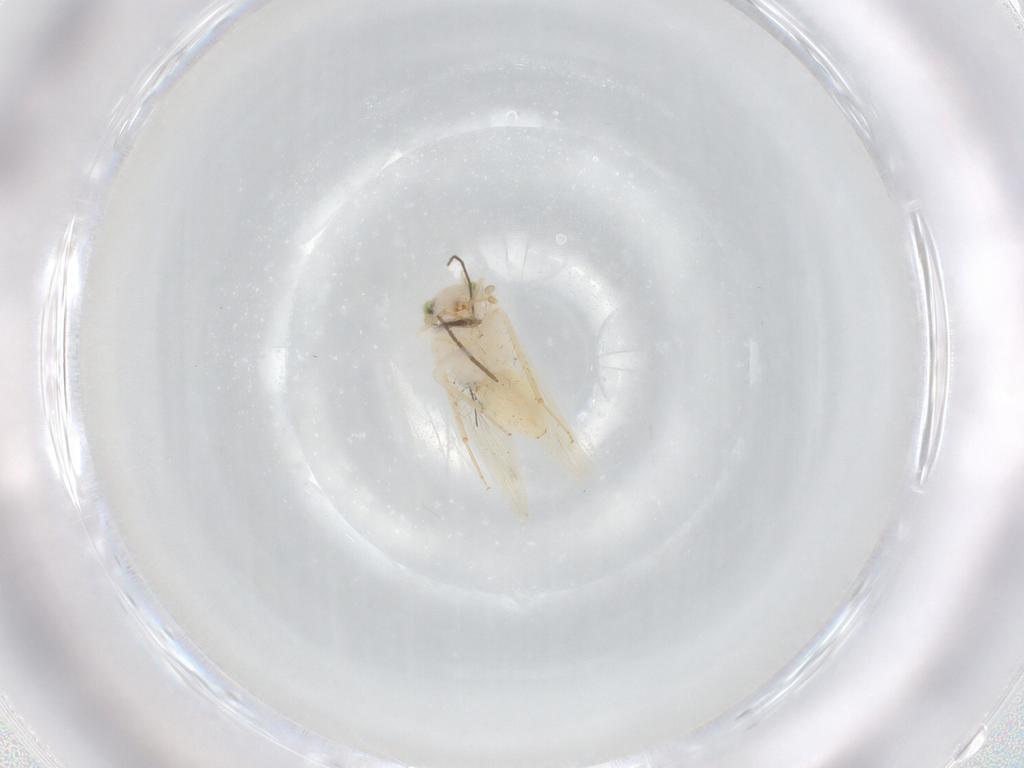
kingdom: Animalia
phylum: Arthropoda
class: Insecta
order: Psocodea
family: Lepidopsocidae
